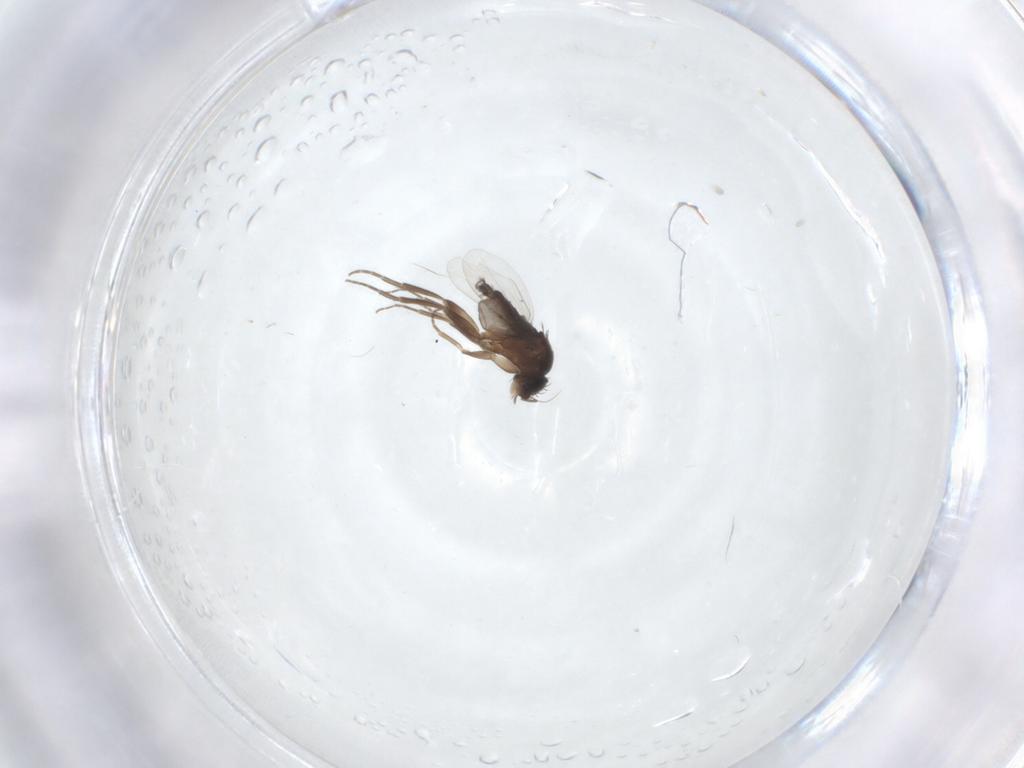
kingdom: Animalia
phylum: Arthropoda
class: Insecta
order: Diptera
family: Phoridae
